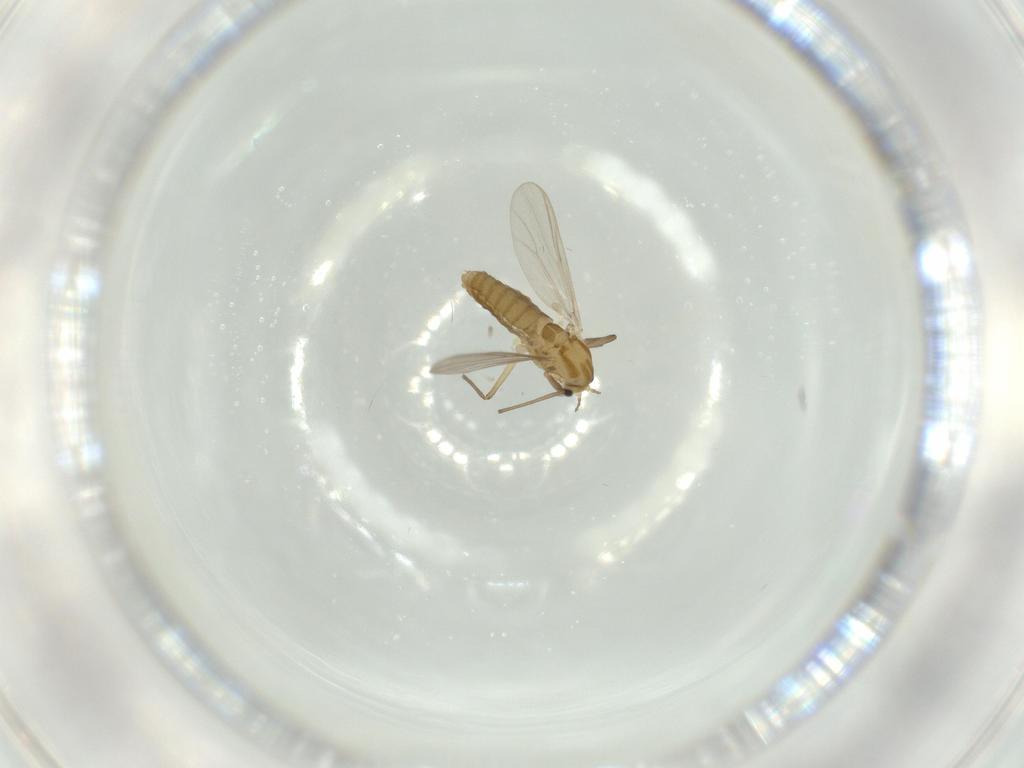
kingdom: Animalia
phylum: Arthropoda
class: Insecta
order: Diptera
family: Chironomidae
